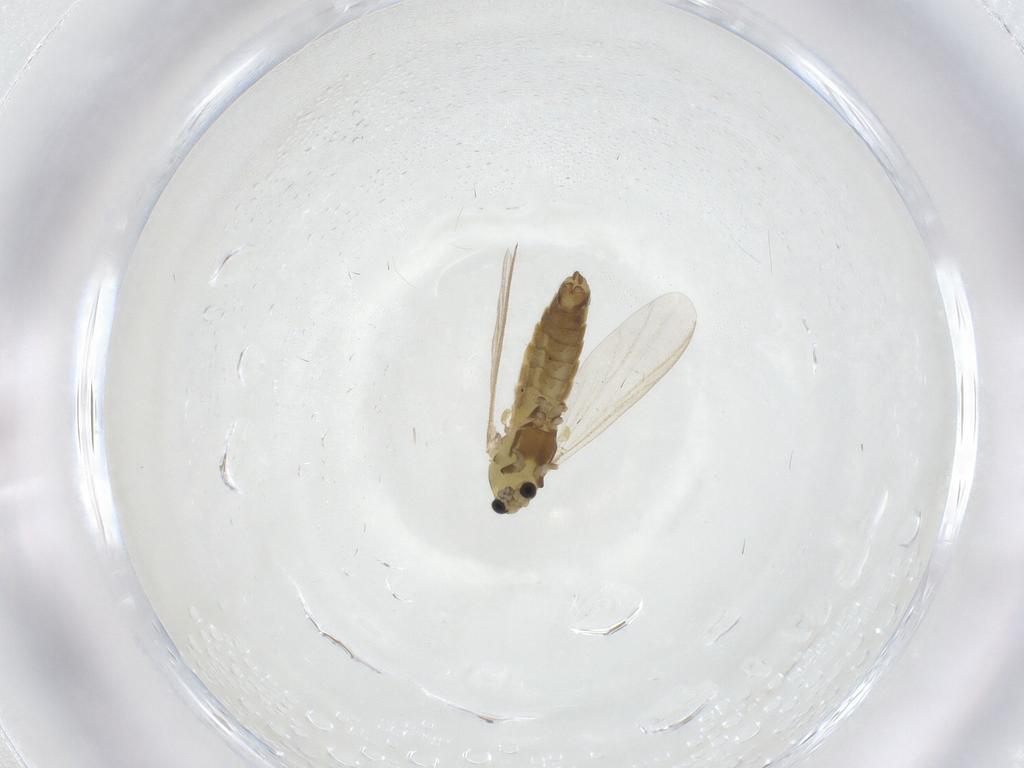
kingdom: Animalia
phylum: Arthropoda
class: Insecta
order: Diptera
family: Chironomidae
